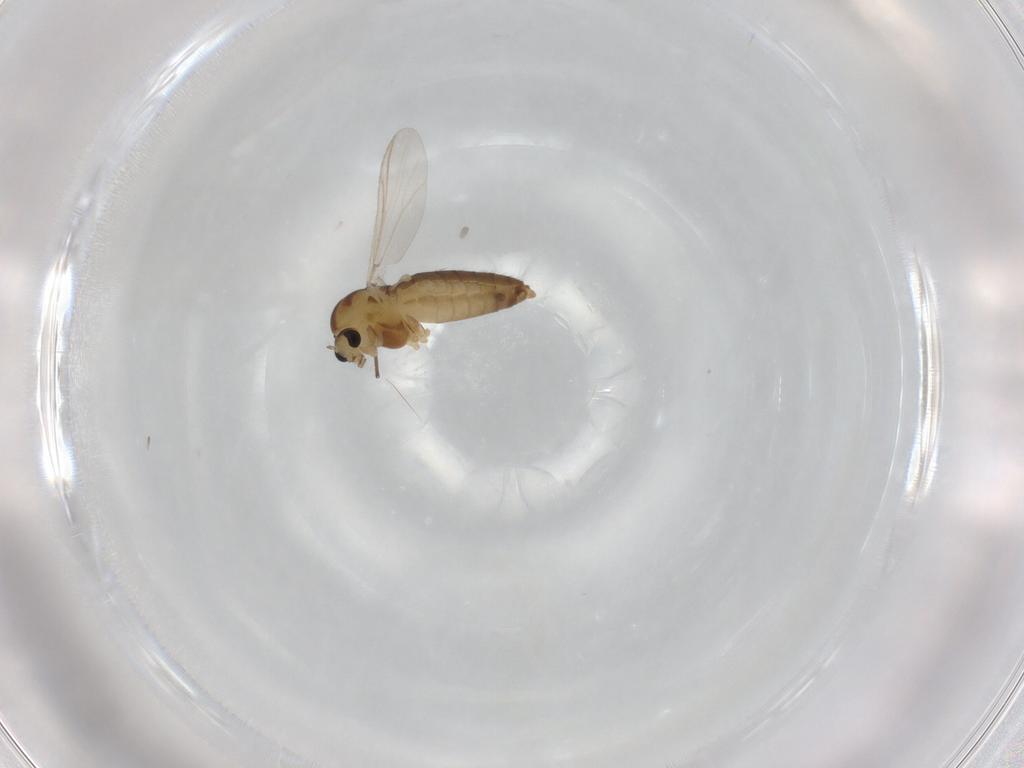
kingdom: Animalia
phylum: Arthropoda
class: Insecta
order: Diptera
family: Chironomidae
